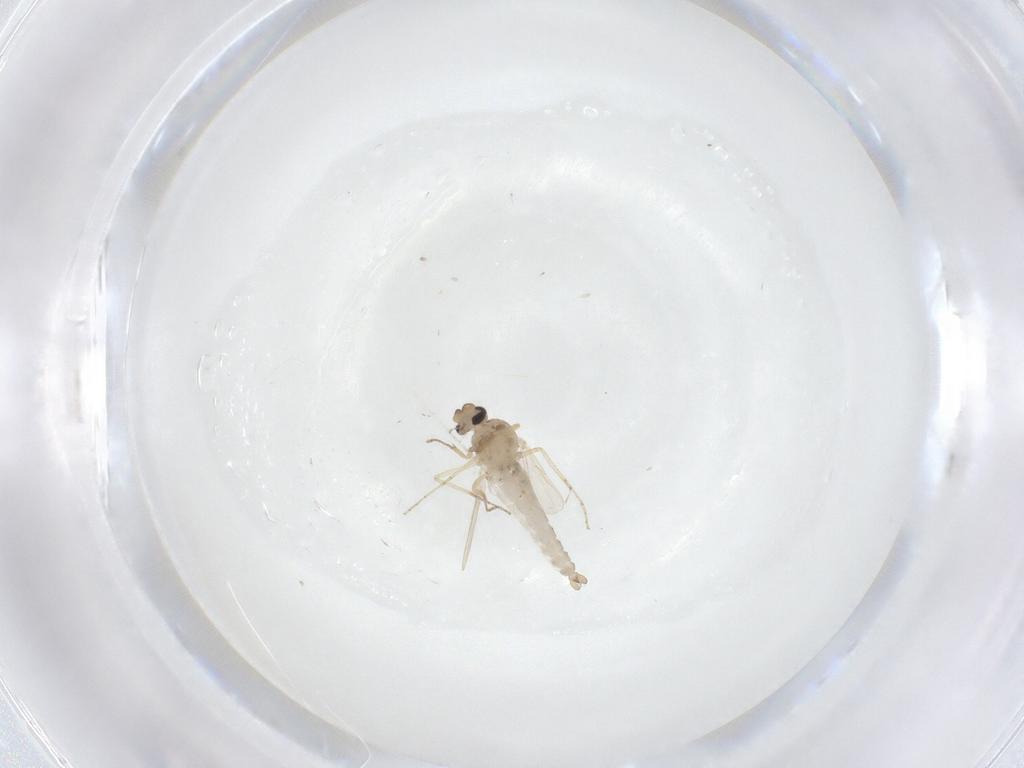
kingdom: Animalia
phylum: Arthropoda
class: Insecta
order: Diptera
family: Ceratopogonidae
